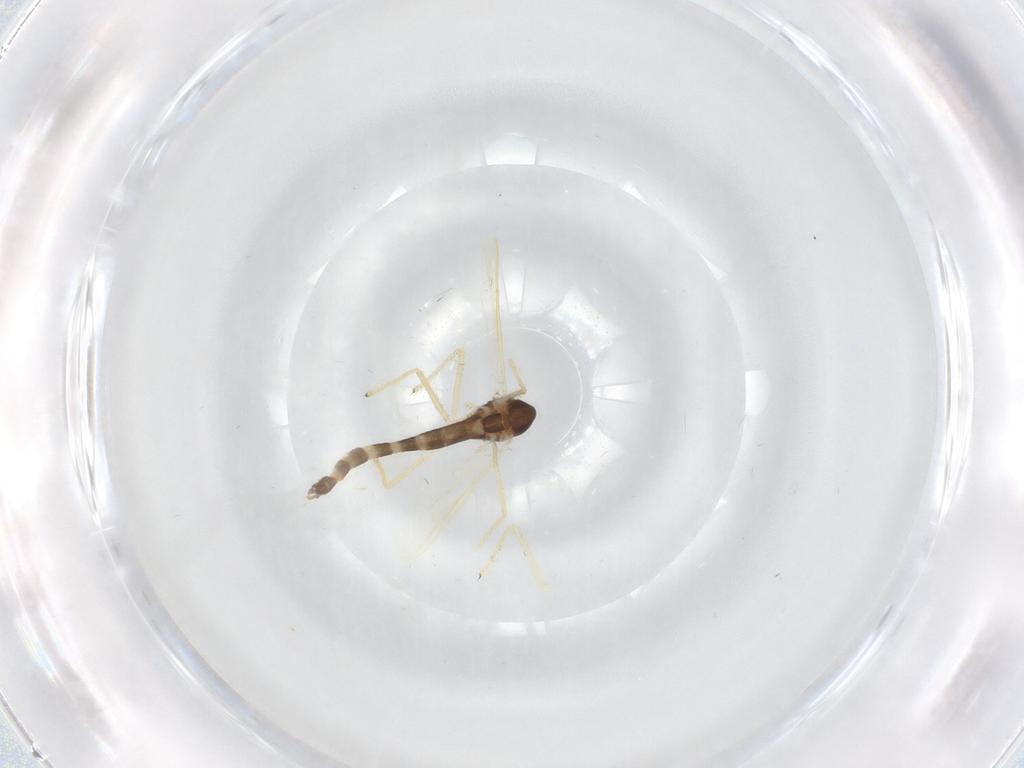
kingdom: Animalia
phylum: Arthropoda
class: Insecta
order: Diptera
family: Chironomidae
